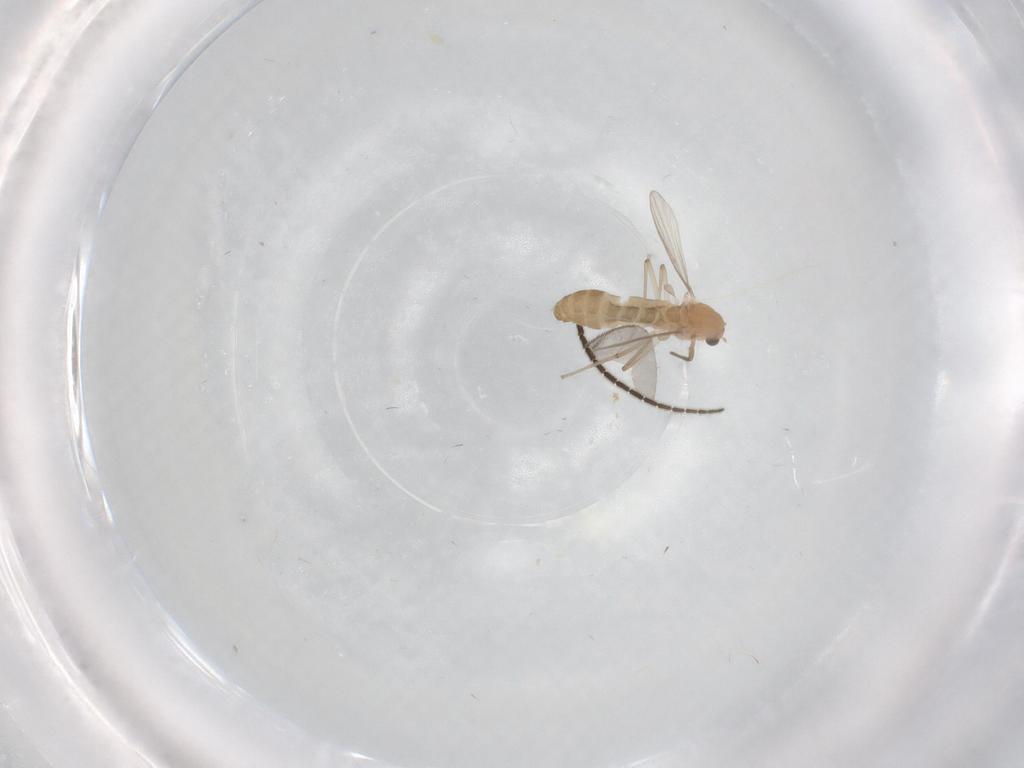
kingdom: Animalia
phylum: Arthropoda
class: Insecta
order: Diptera
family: Chironomidae
